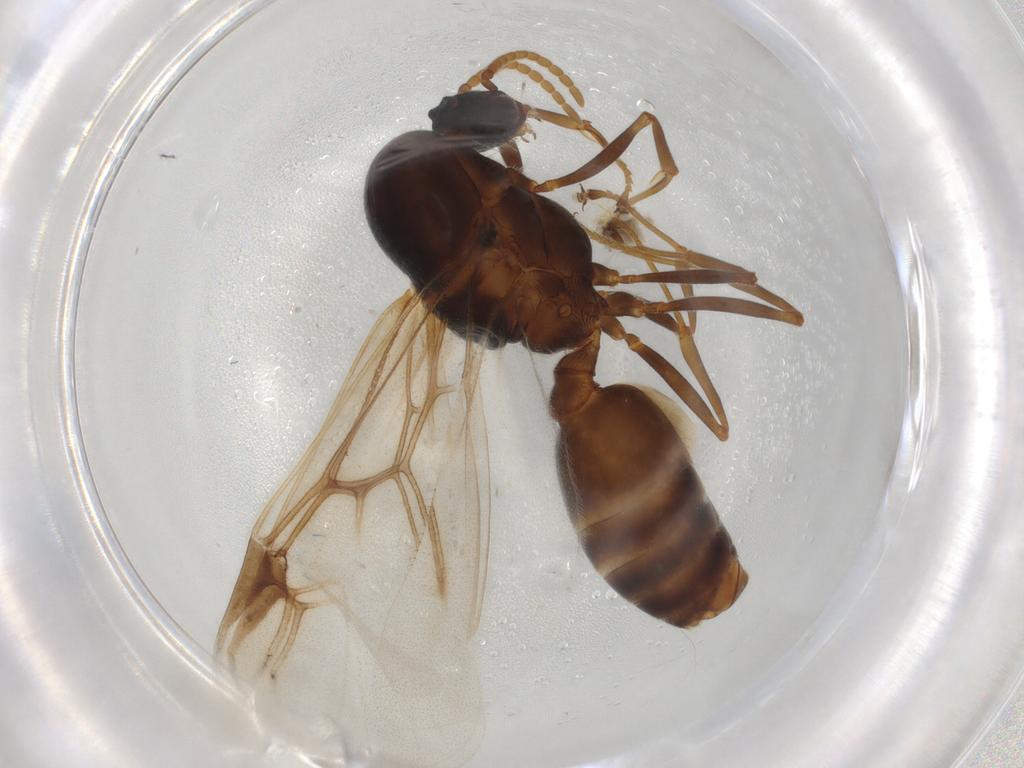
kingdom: Animalia
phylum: Arthropoda
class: Insecta
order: Hymenoptera
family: Formicidae
